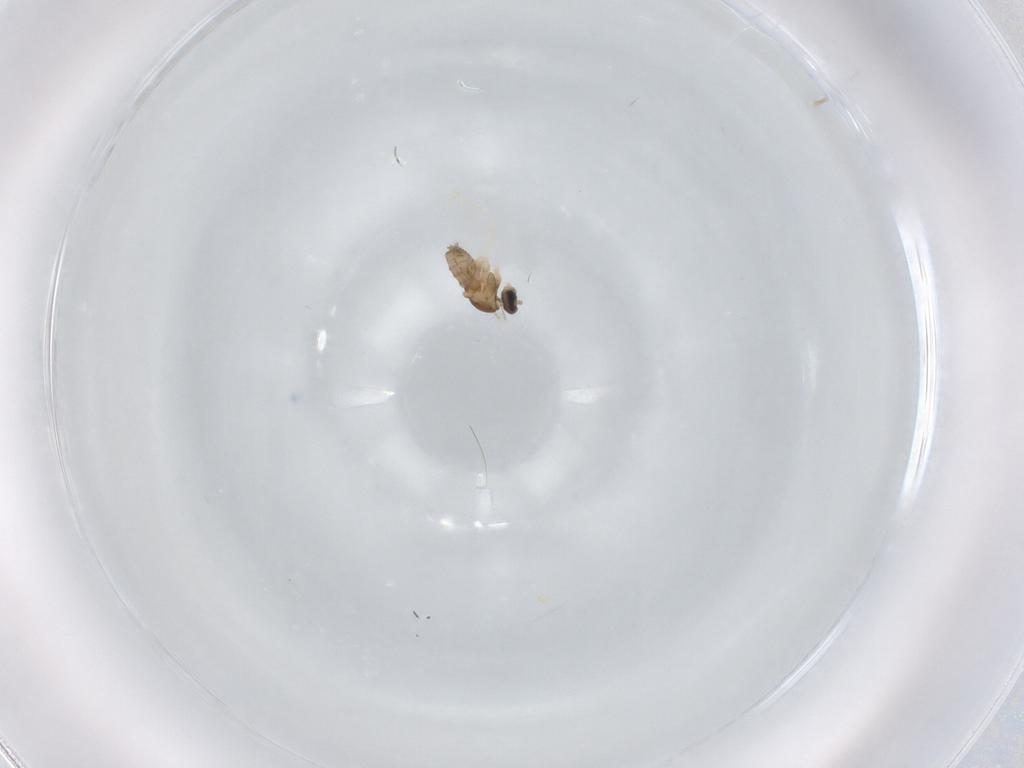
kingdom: Animalia
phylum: Arthropoda
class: Insecta
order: Diptera
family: Cecidomyiidae
